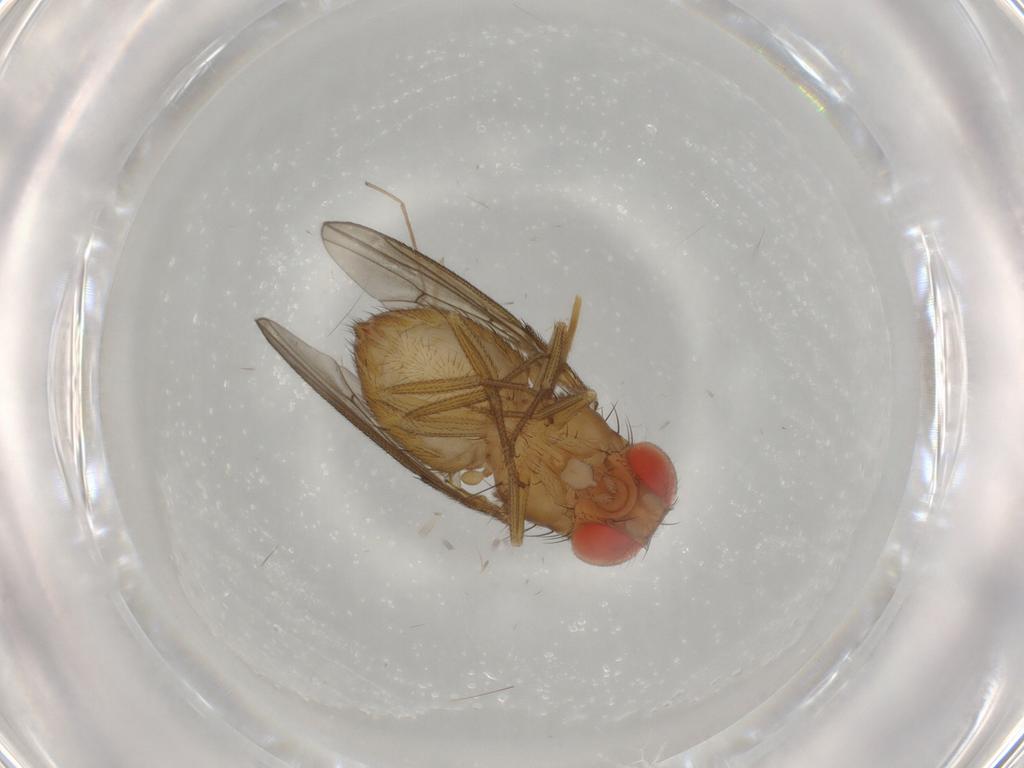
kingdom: Animalia
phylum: Arthropoda
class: Insecta
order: Diptera
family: Drosophilidae
